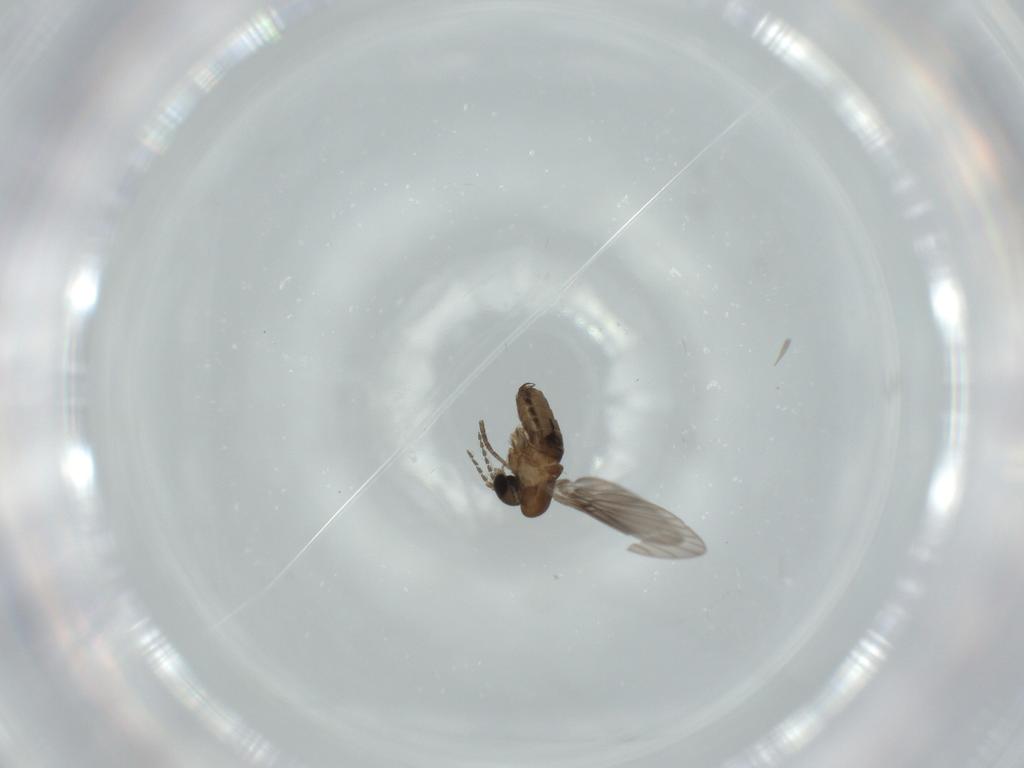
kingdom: Animalia
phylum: Arthropoda
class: Insecta
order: Diptera
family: Psychodidae
